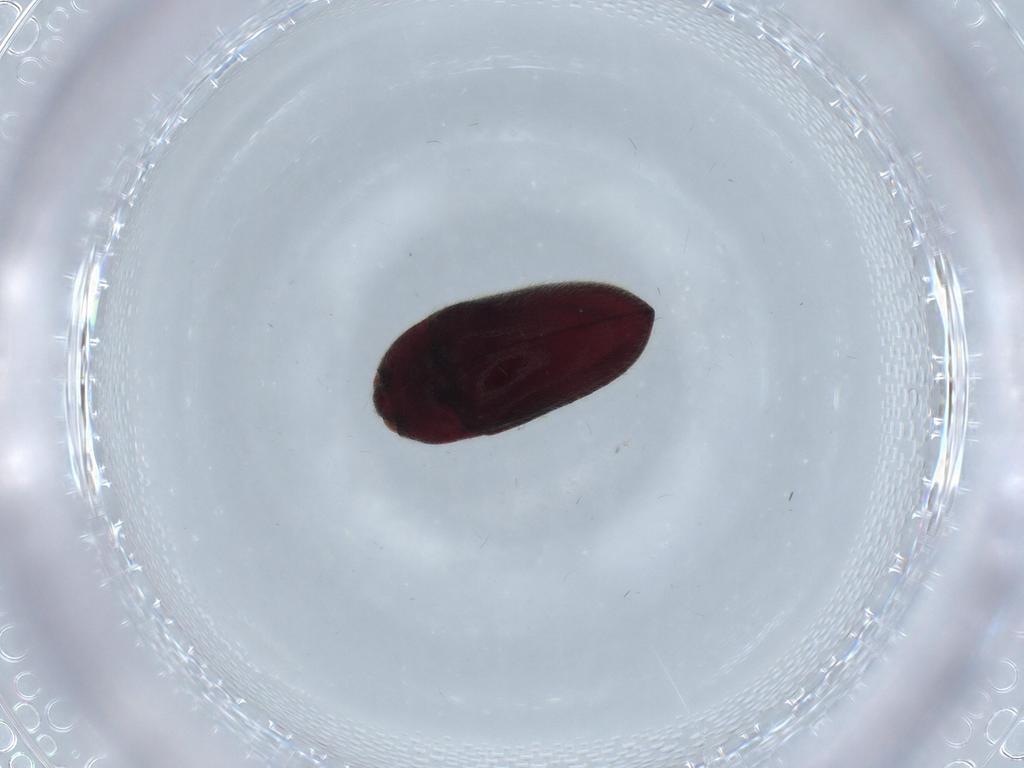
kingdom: Animalia
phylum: Arthropoda
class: Insecta
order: Coleoptera
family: Throscidae
